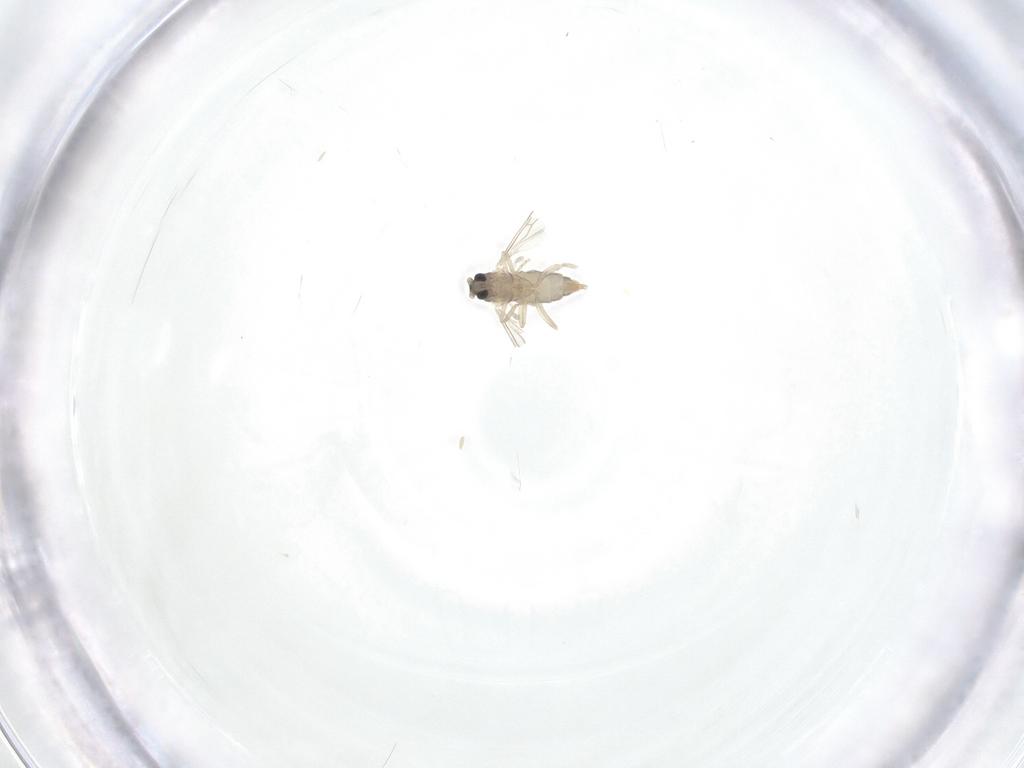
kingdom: Animalia
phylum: Arthropoda
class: Insecta
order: Diptera
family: Cecidomyiidae
